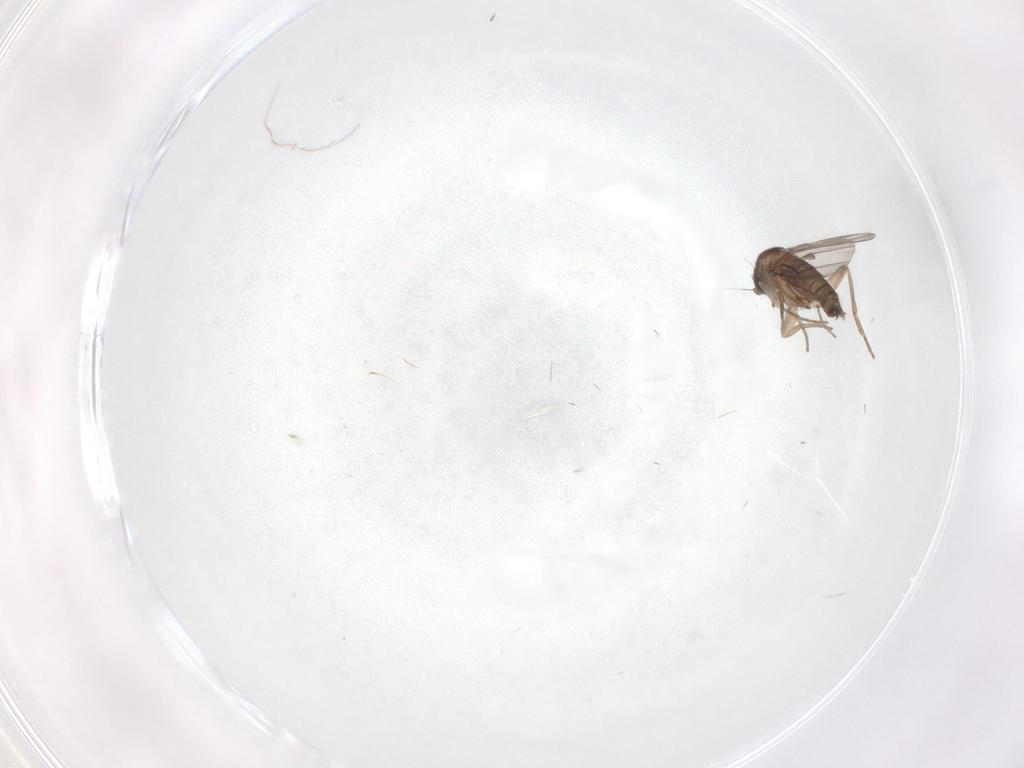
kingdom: Animalia
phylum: Arthropoda
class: Insecta
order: Diptera
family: Phoridae
